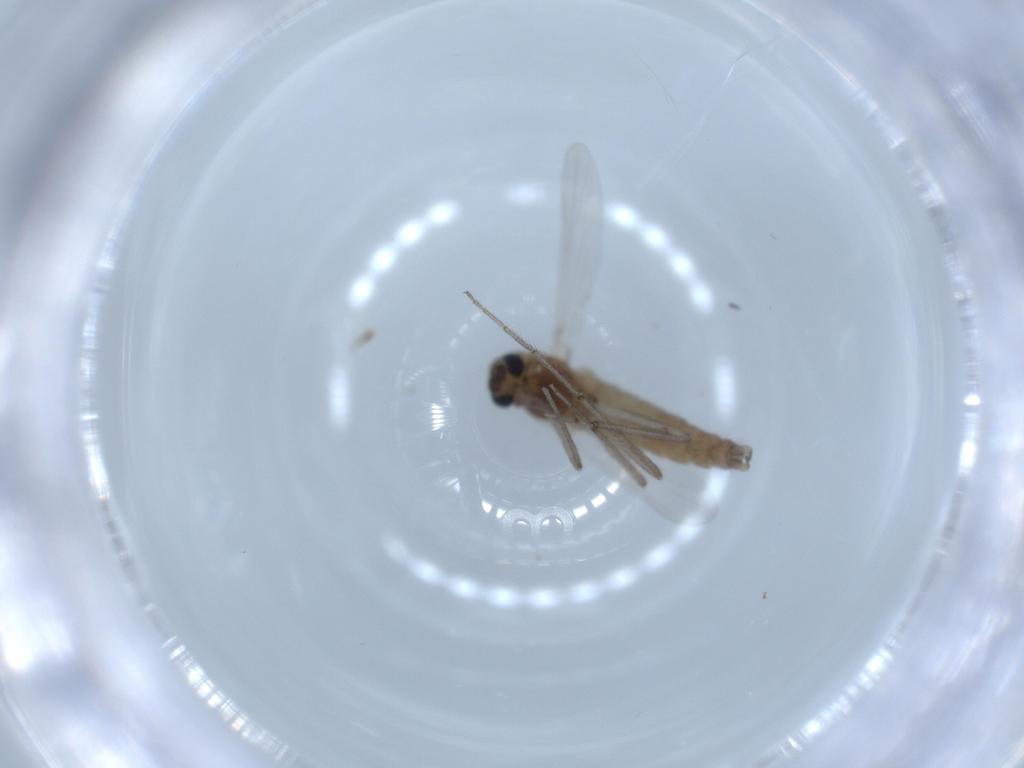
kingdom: Animalia
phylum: Arthropoda
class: Insecta
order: Diptera
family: Chironomidae
